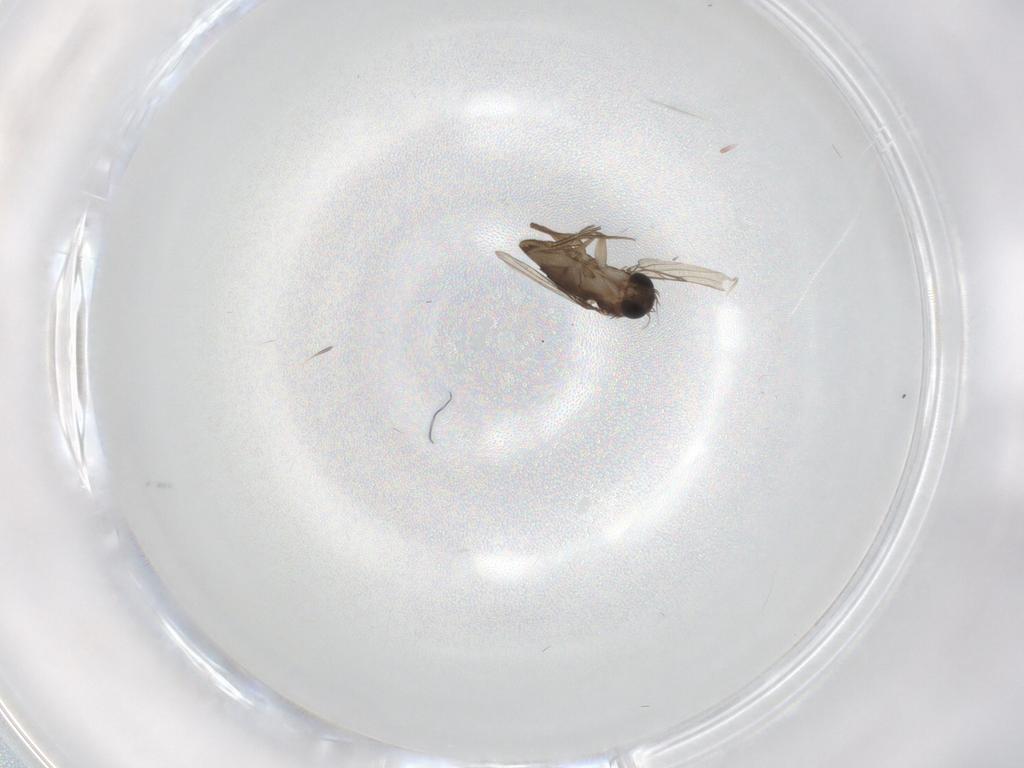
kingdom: Animalia
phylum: Arthropoda
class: Insecta
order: Diptera
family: Phoridae
